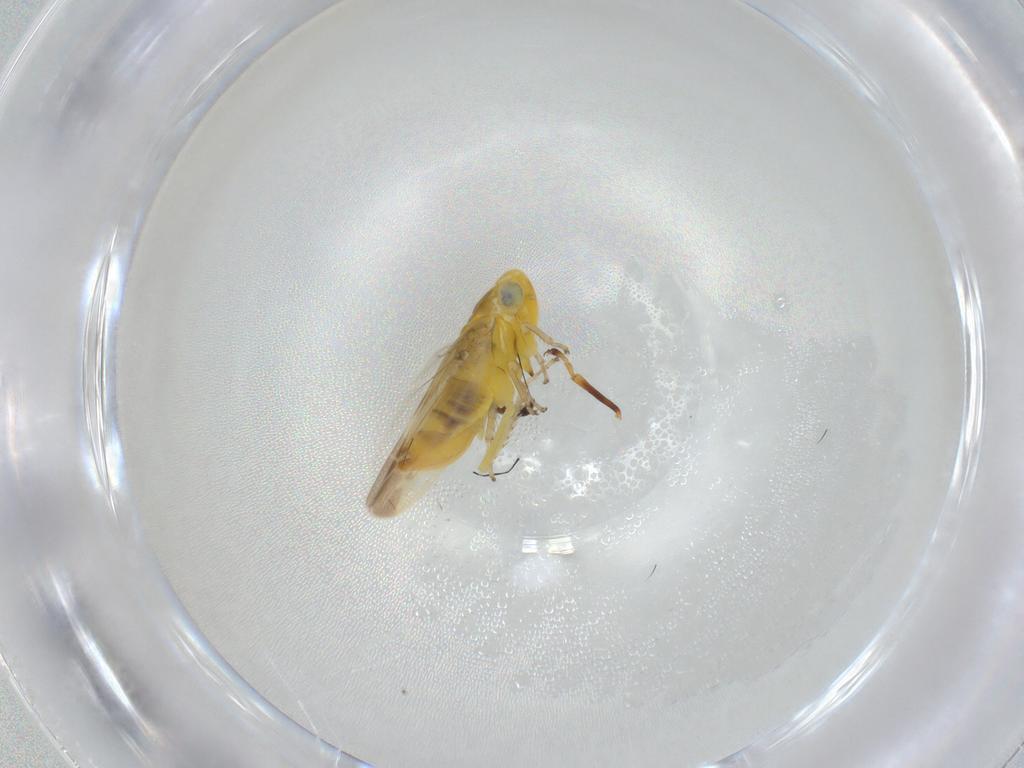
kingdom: Animalia
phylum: Arthropoda
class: Insecta
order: Hemiptera
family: Cicadellidae
